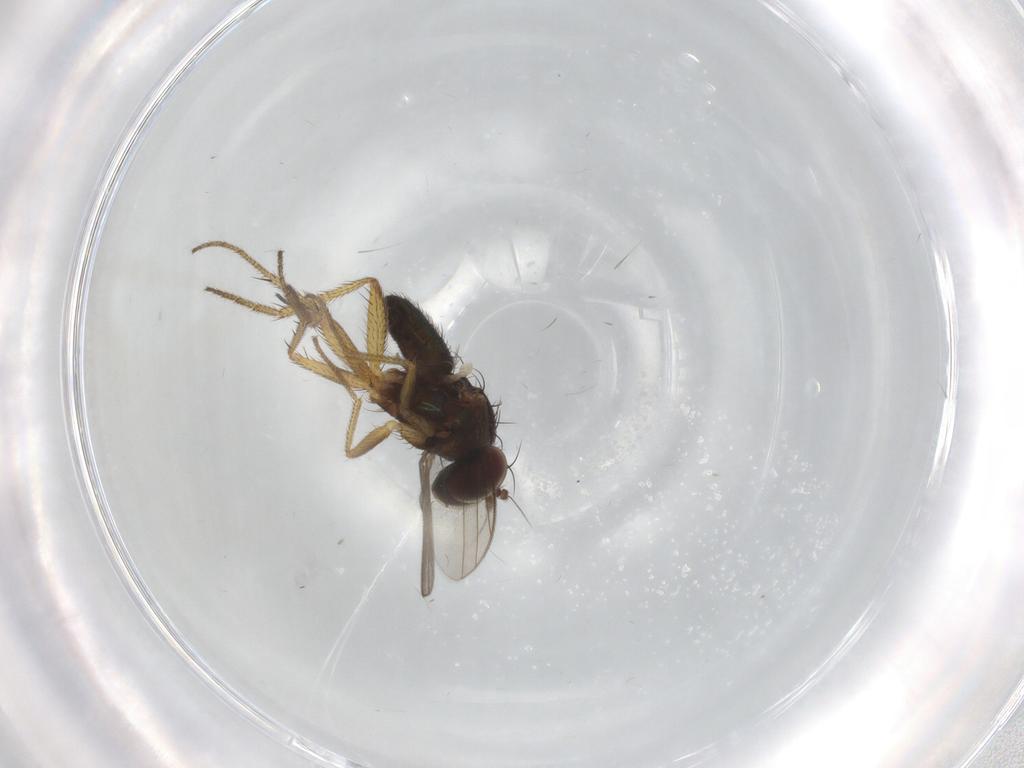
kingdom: Animalia
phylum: Arthropoda
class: Insecta
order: Diptera
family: Sciaridae
